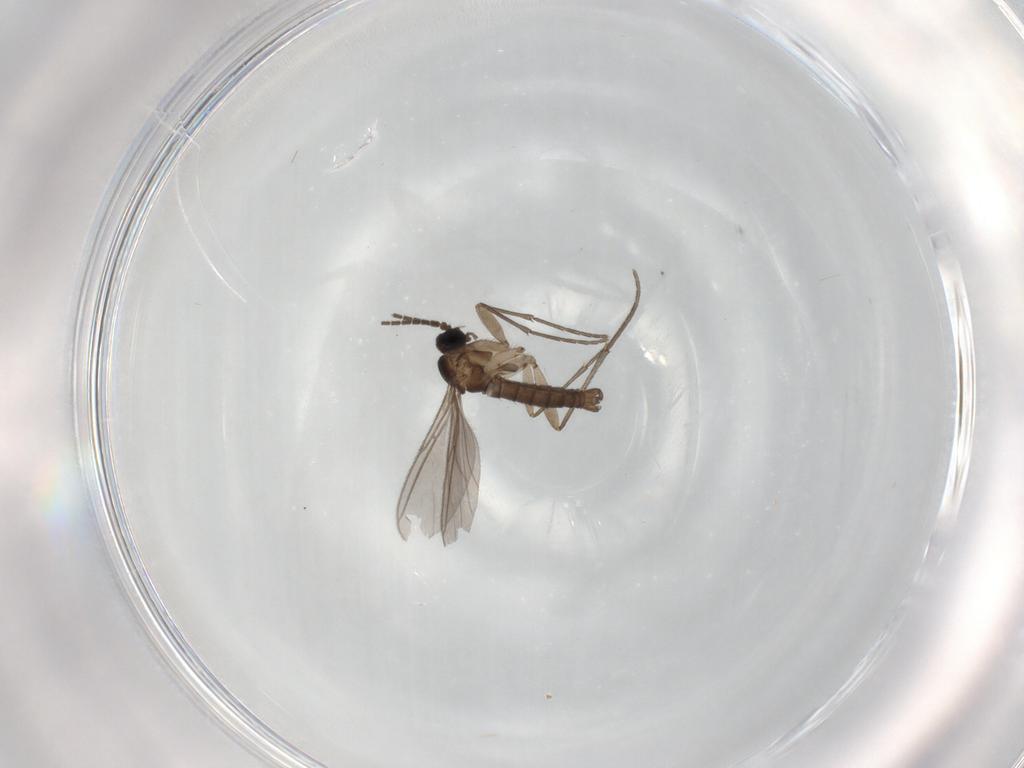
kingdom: Animalia
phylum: Arthropoda
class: Insecta
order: Diptera
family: Sciaridae
